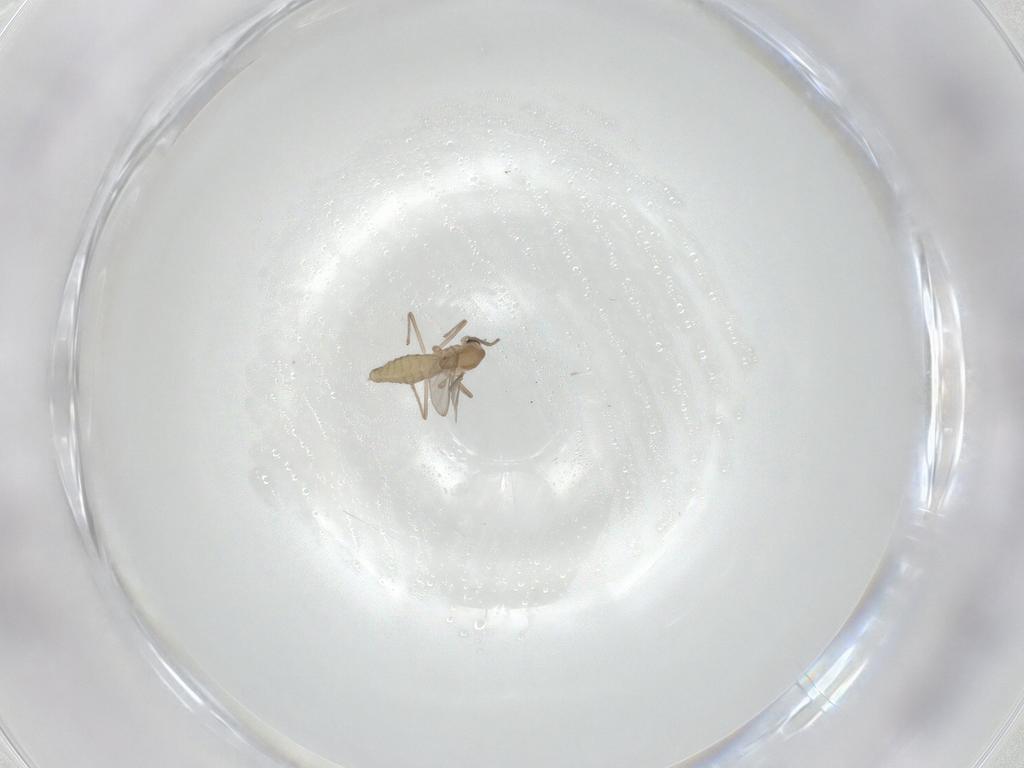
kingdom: Animalia
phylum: Arthropoda
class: Insecta
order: Diptera
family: Chironomidae
